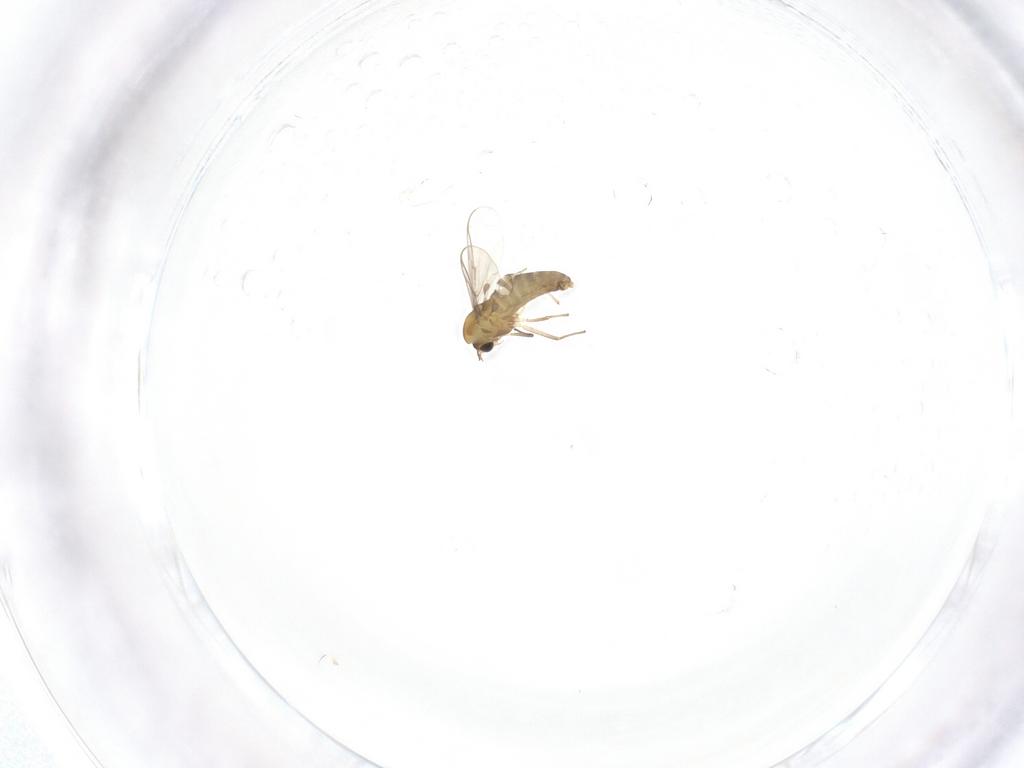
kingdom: Animalia
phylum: Arthropoda
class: Insecta
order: Diptera
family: Chironomidae
